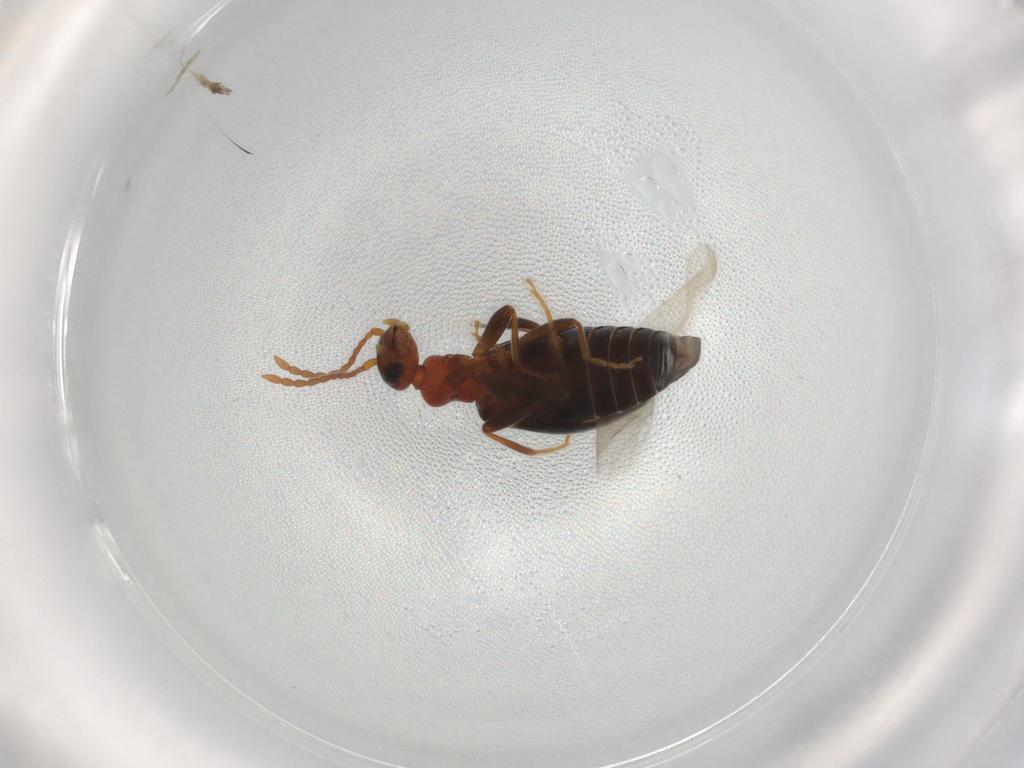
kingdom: Animalia
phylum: Arthropoda
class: Insecta
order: Coleoptera
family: Anthicidae
